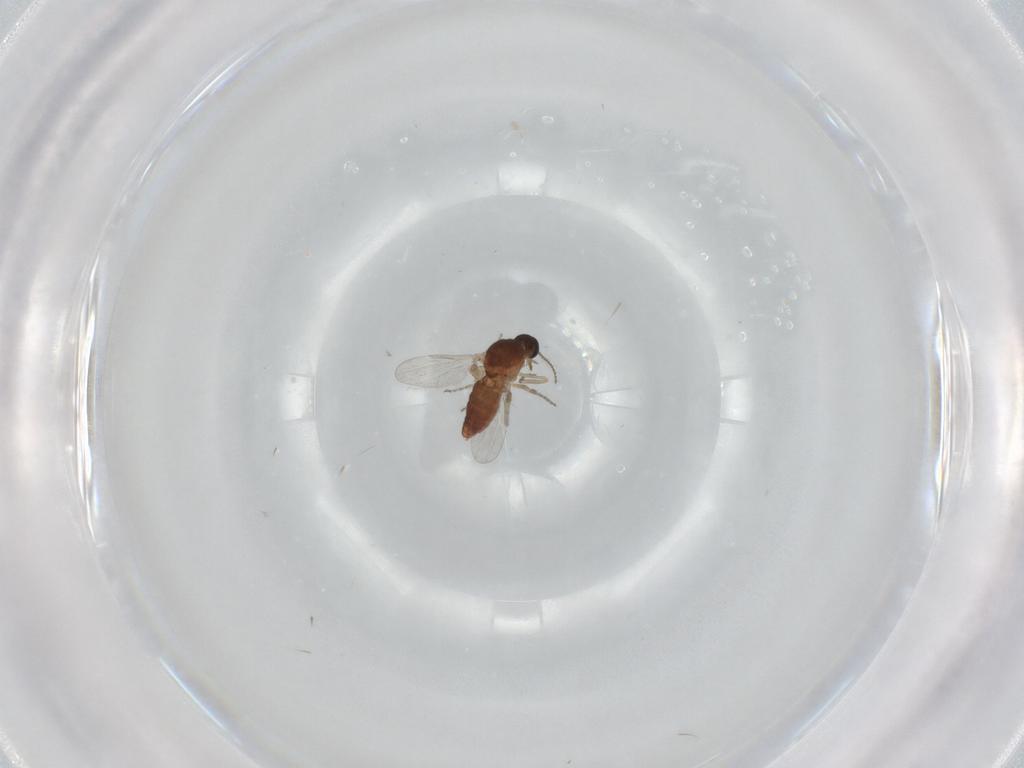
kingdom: Animalia
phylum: Arthropoda
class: Insecta
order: Diptera
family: Ceratopogonidae
